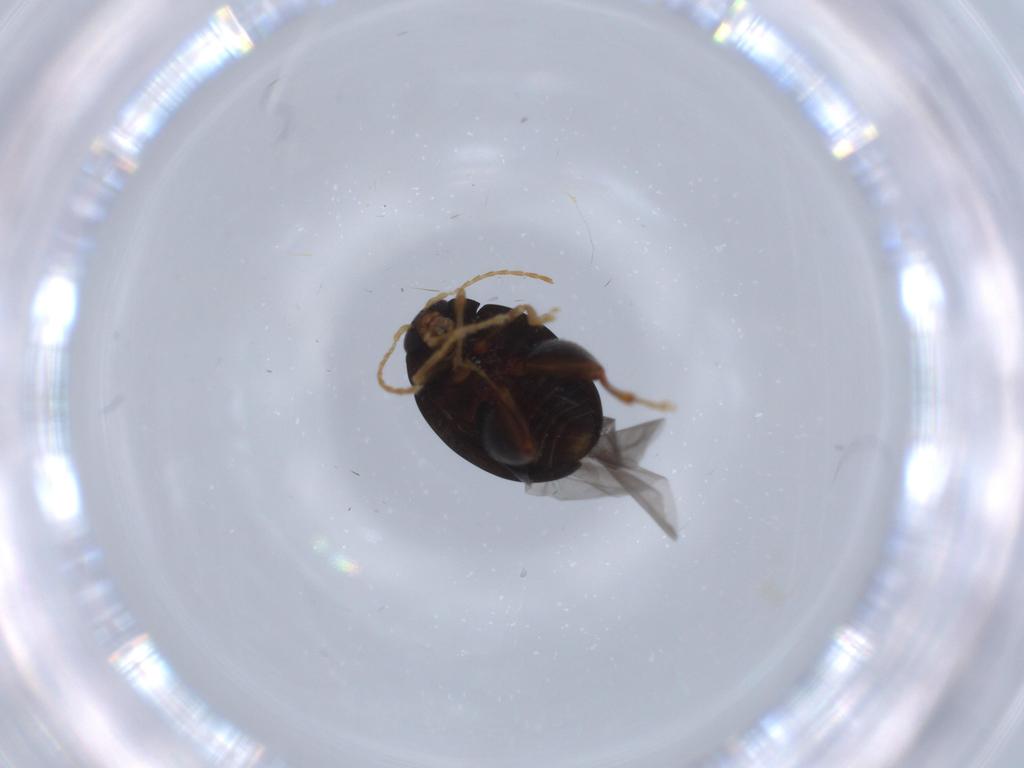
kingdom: Animalia
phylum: Arthropoda
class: Insecta
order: Coleoptera
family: Chrysomelidae
